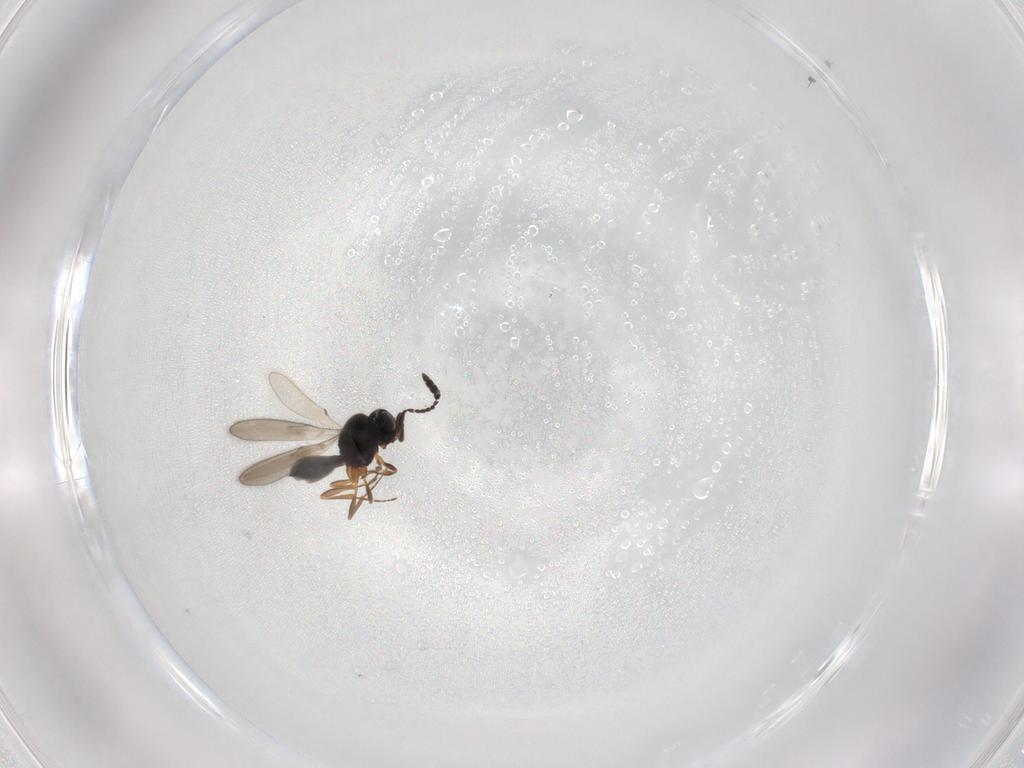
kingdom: Animalia
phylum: Arthropoda
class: Insecta
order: Hymenoptera
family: Scelionidae
